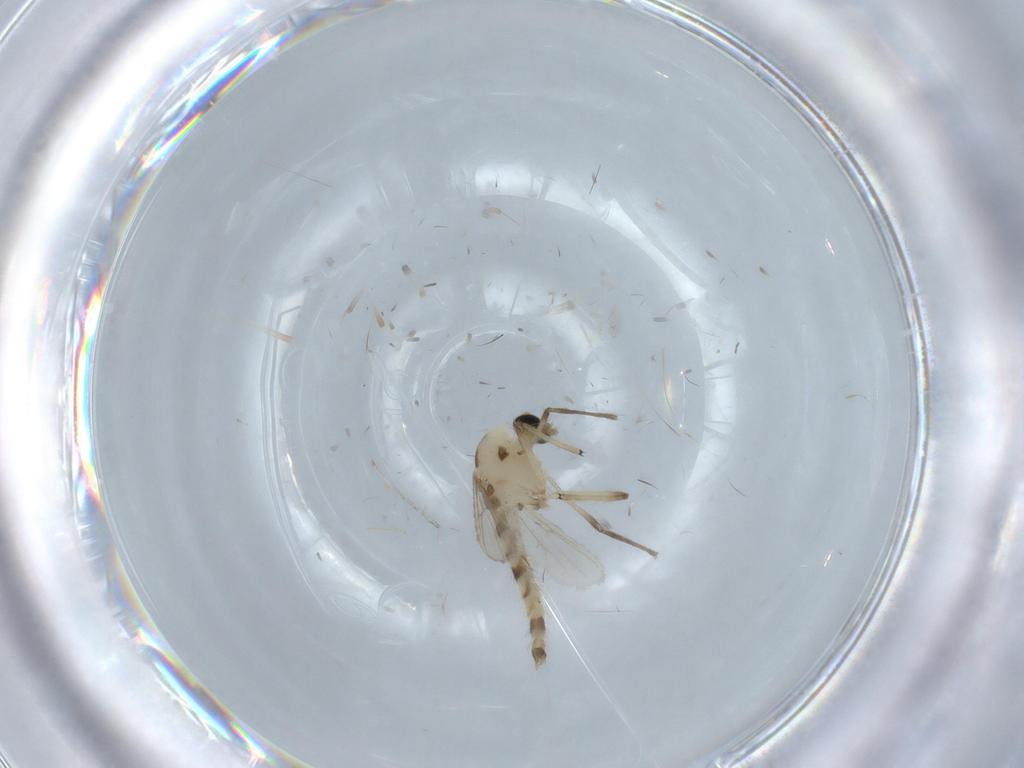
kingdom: Animalia
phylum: Arthropoda
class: Insecta
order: Diptera
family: Chironomidae
